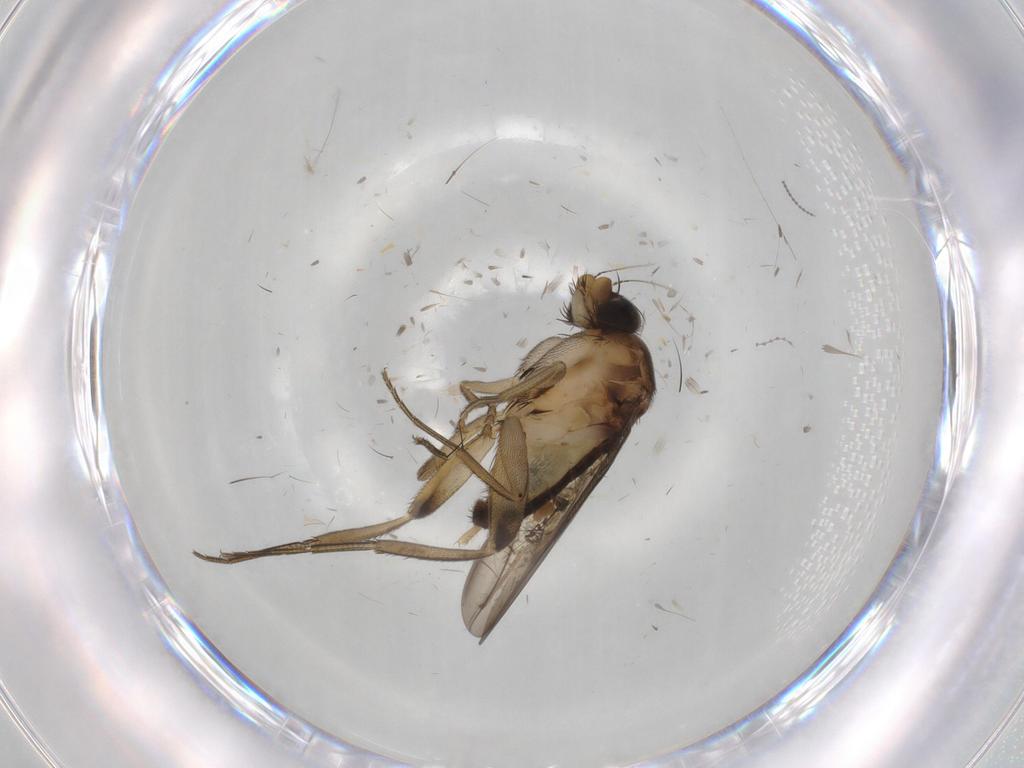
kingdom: Animalia
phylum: Arthropoda
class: Insecta
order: Diptera
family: Phoridae
